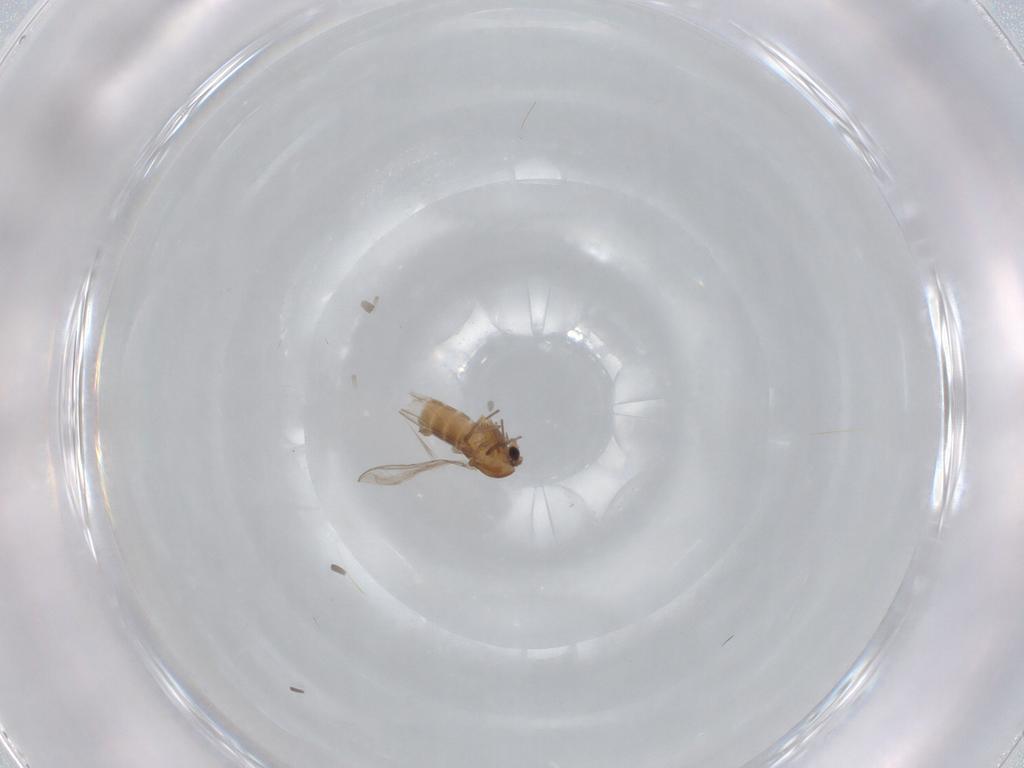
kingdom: Animalia
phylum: Arthropoda
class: Insecta
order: Diptera
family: Chironomidae
